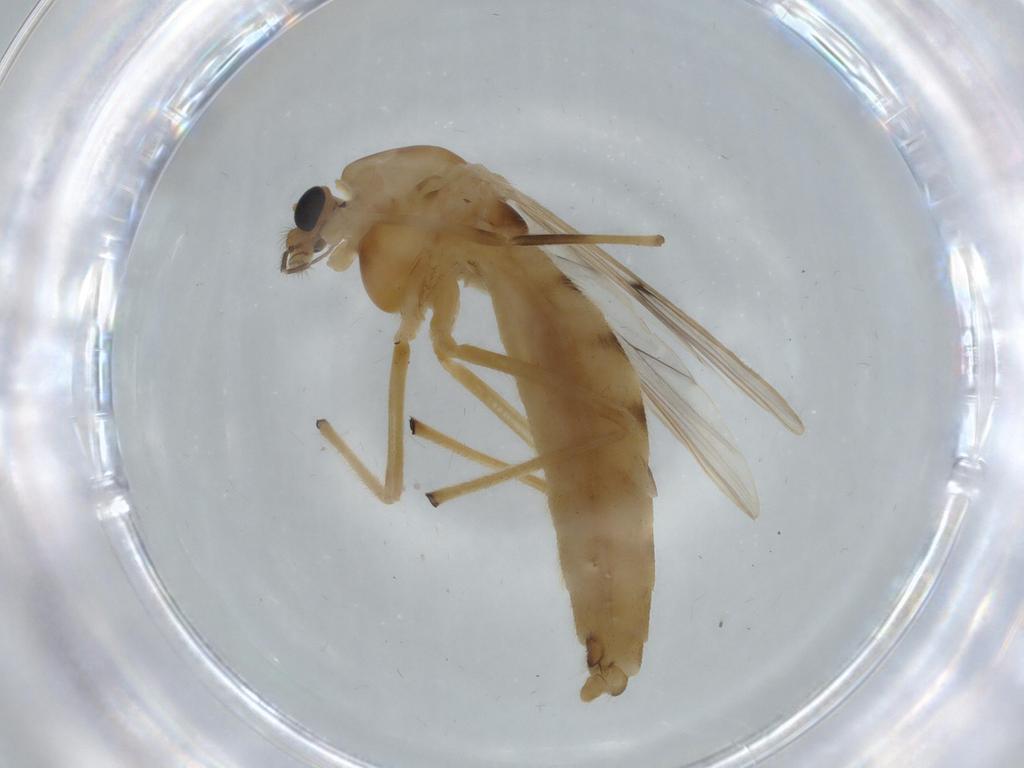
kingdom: Animalia
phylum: Arthropoda
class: Insecta
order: Diptera
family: Chironomidae
